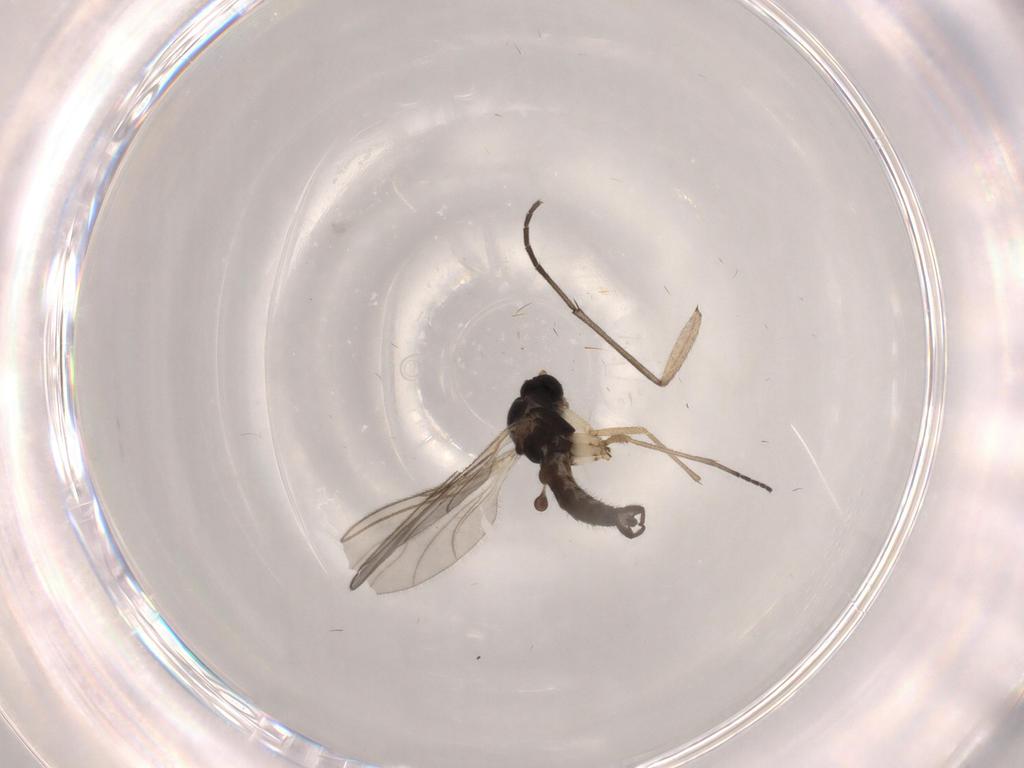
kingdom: Animalia
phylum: Arthropoda
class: Insecta
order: Diptera
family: Sciaridae
